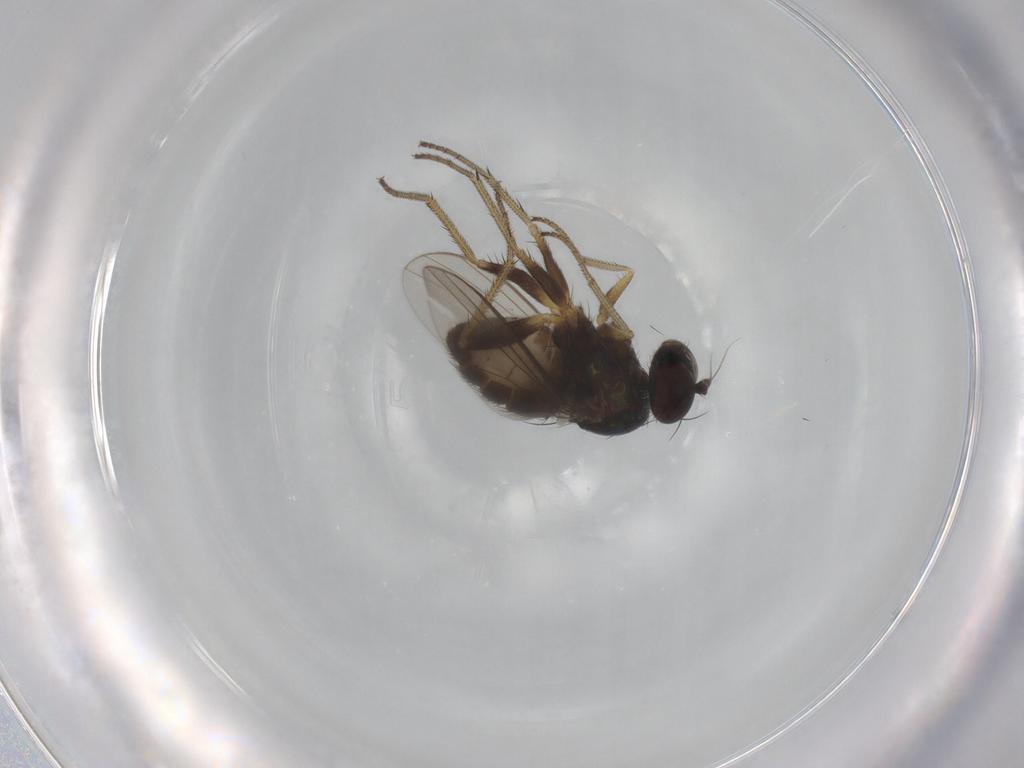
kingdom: Animalia
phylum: Arthropoda
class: Insecta
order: Diptera
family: Chironomidae
